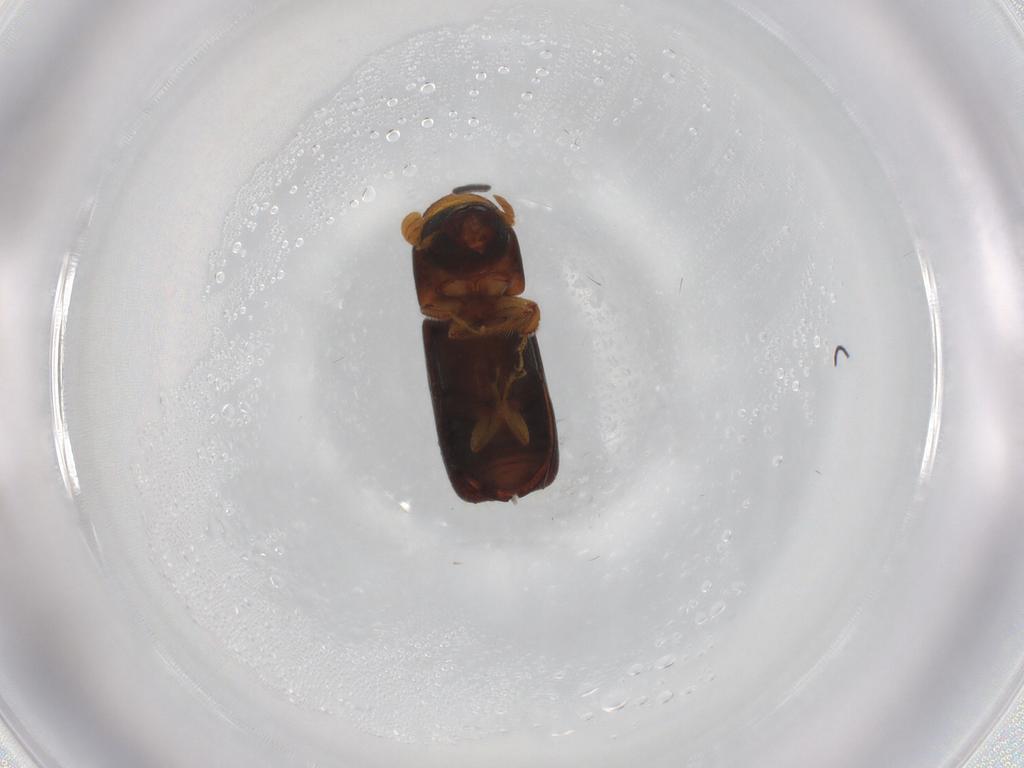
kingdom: Animalia
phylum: Arthropoda
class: Insecta
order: Coleoptera
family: Curculionidae
